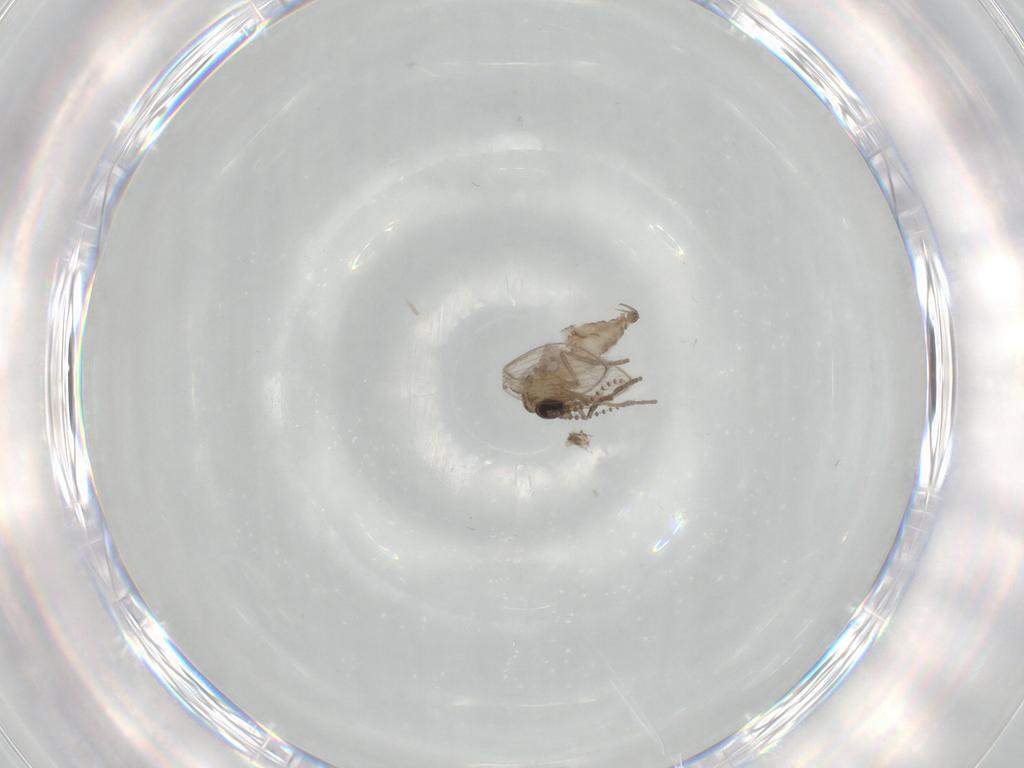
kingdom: Animalia
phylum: Arthropoda
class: Insecta
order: Diptera
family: Psychodidae
